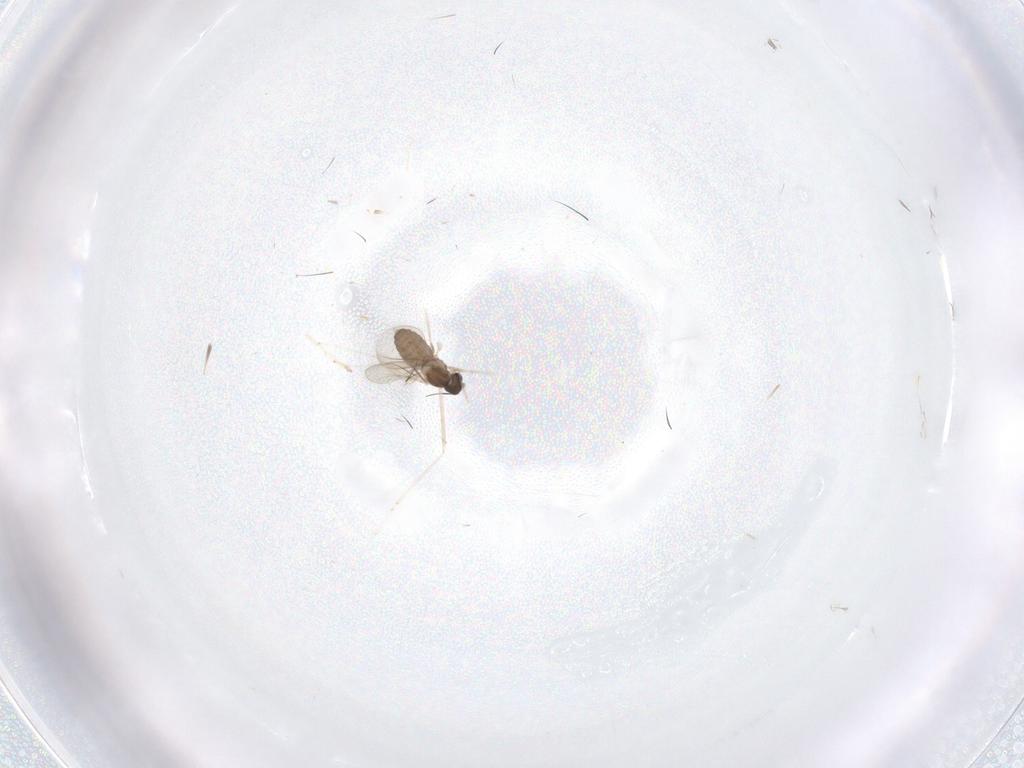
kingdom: Animalia
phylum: Arthropoda
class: Insecta
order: Diptera
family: Cecidomyiidae
